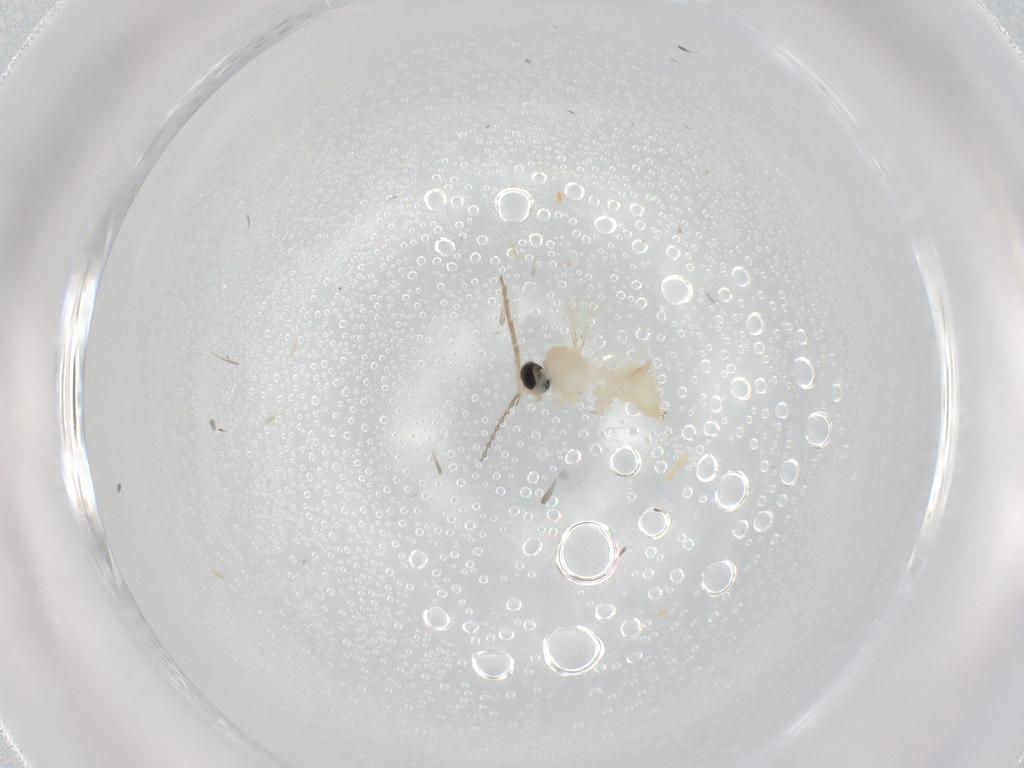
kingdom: Animalia
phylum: Arthropoda
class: Insecta
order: Diptera
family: Cecidomyiidae
